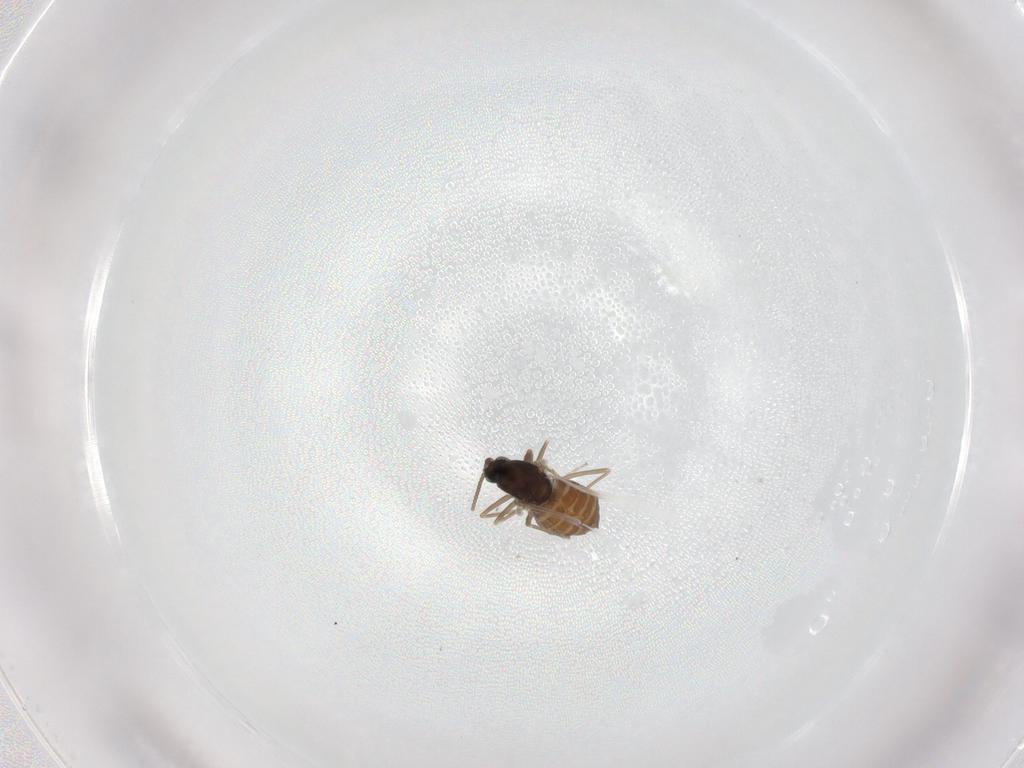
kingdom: Animalia
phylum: Arthropoda
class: Insecta
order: Diptera
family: Cecidomyiidae
